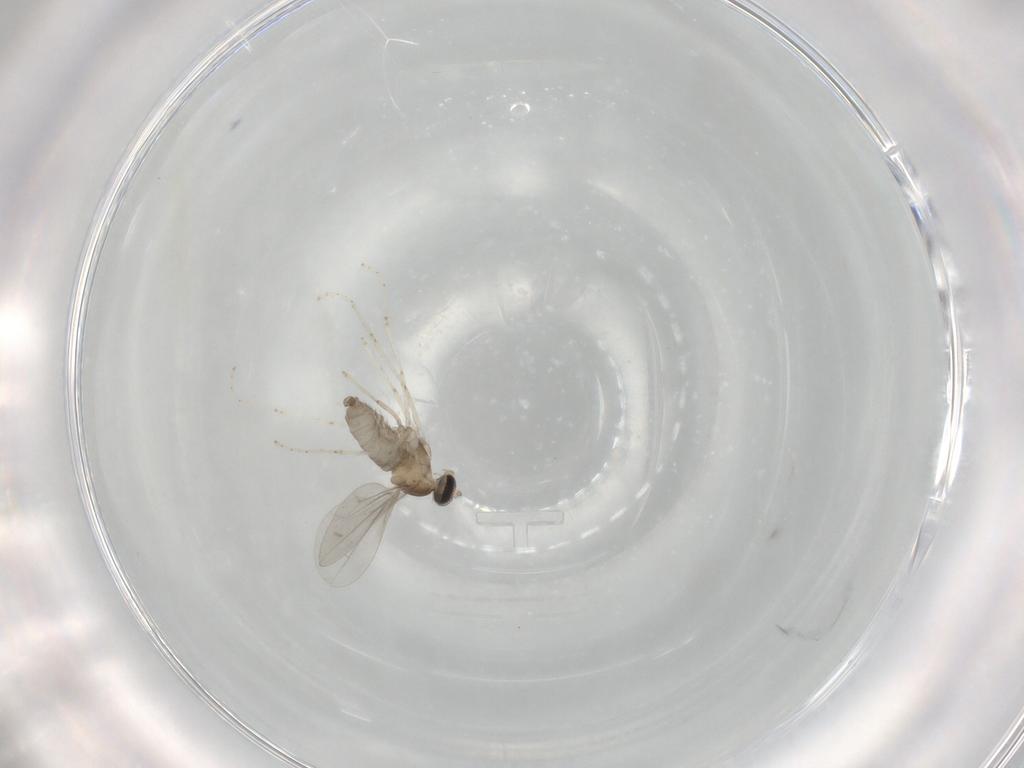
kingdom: Animalia
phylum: Arthropoda
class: Insecta
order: Diptera
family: Cecidomyiidae
